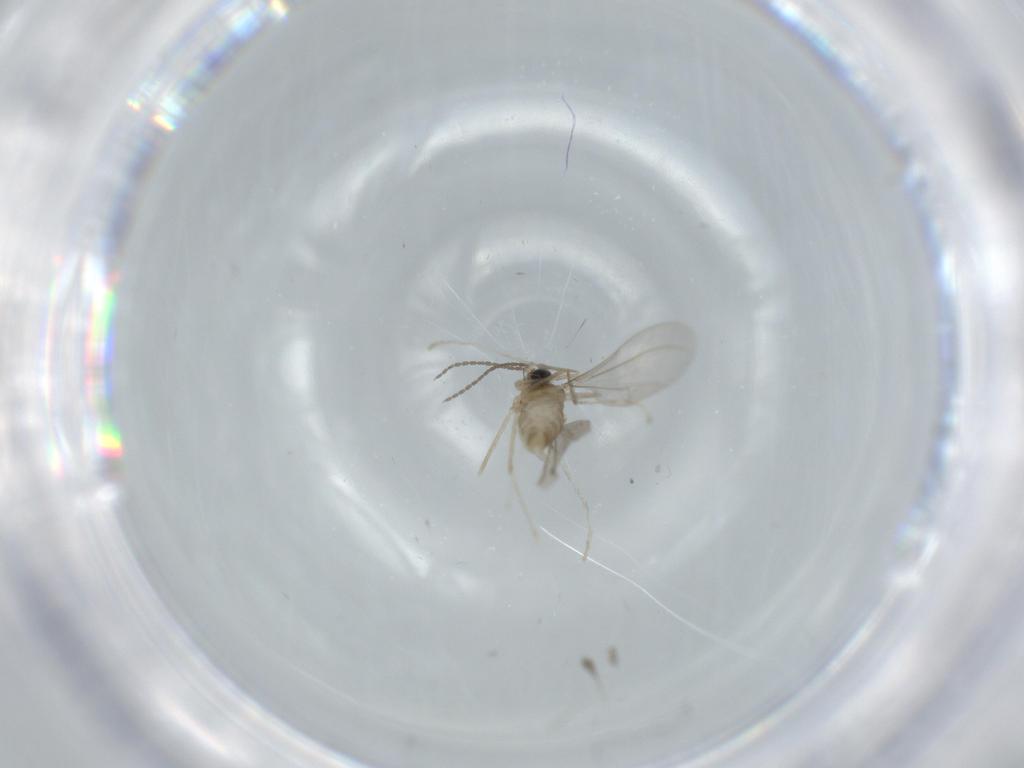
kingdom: Animalia
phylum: Arthropoda
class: Insecta
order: Diptera
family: Cecidomyiidae
